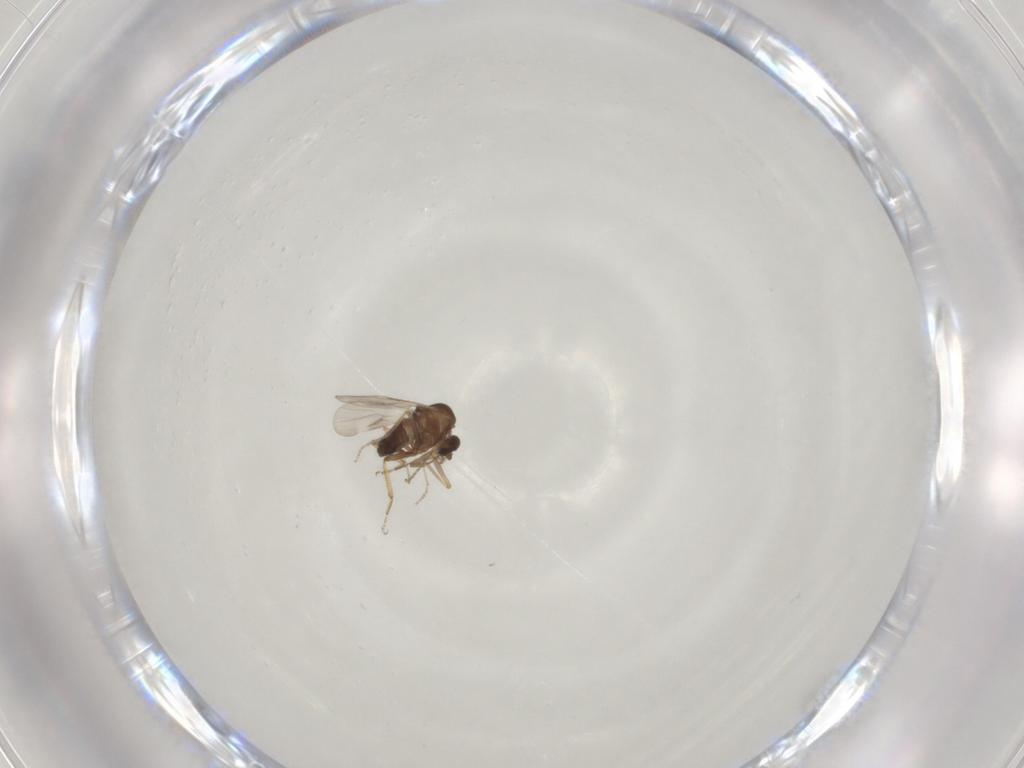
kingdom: Animalia
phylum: Arthropoda
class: Insecta
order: Diptera
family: Ceratopogonidae
